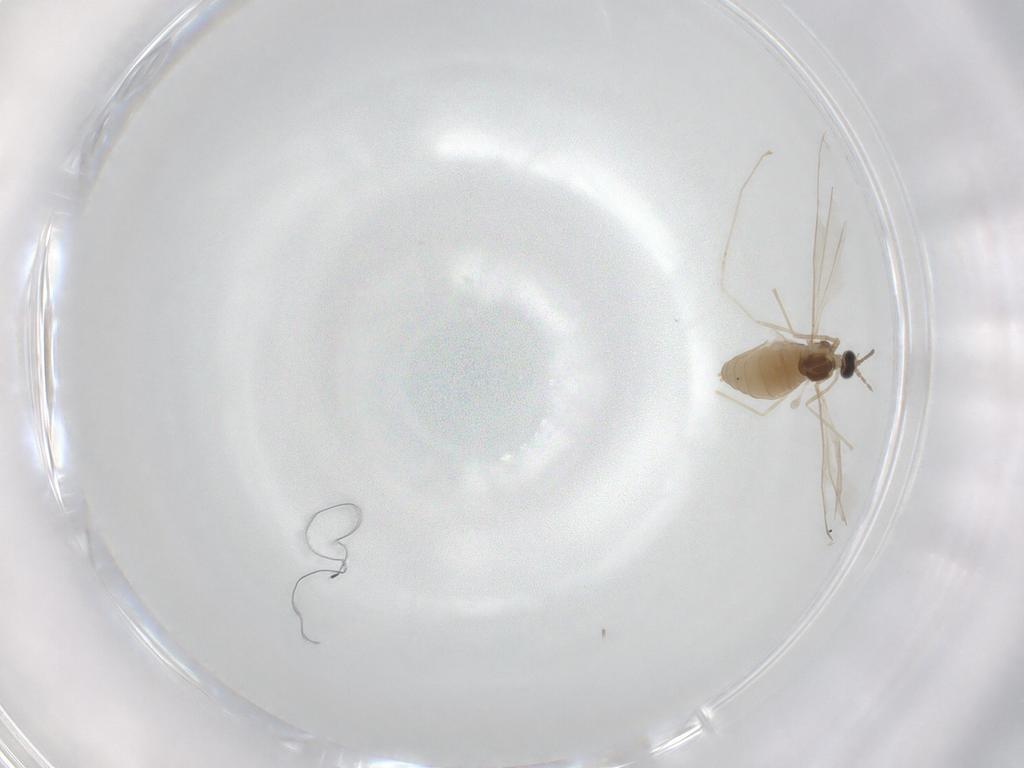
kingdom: Animalia
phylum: Arthropoda
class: Insecta
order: Diptera
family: Cecidomyiidae
